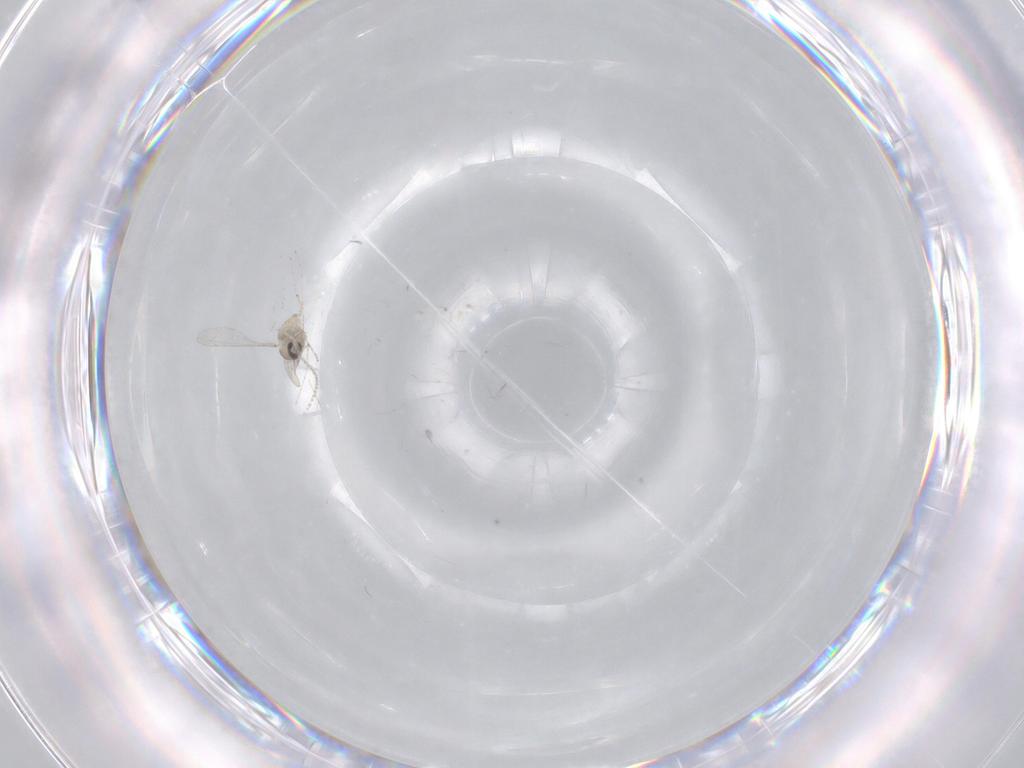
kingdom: Animalia
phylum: Arthropoda
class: Insecta
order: Diptera
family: Cecidomyiidae
